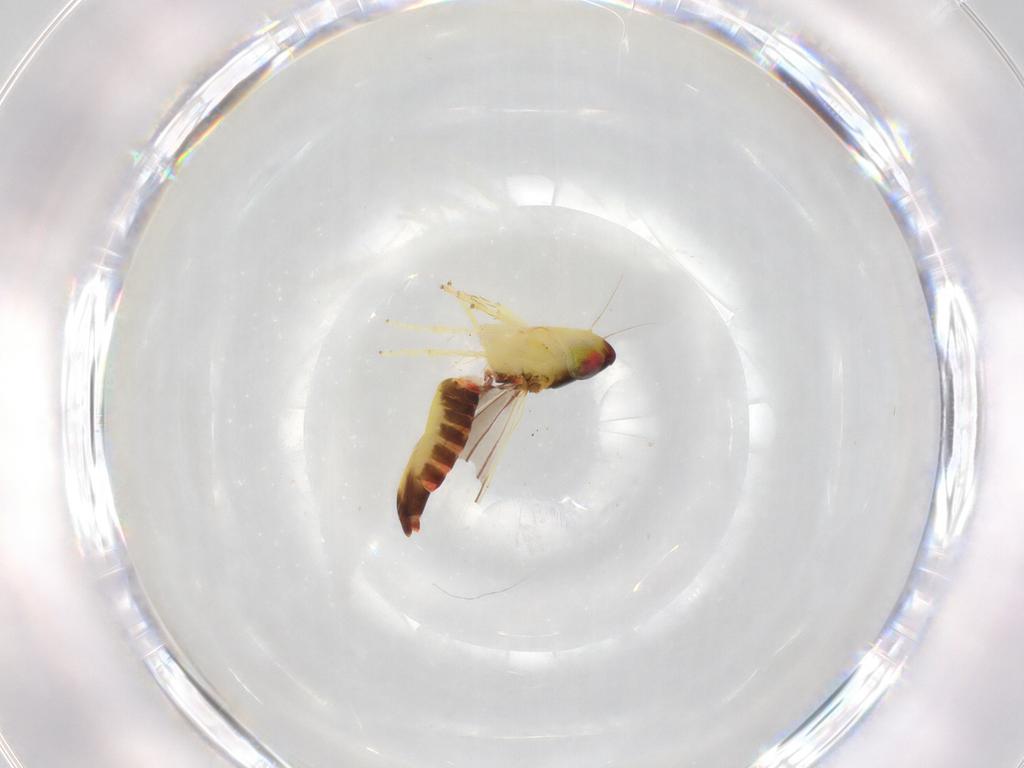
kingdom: Animalia
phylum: Arthropoda
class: Insecta
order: Hemiptera
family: Cicadellidae
